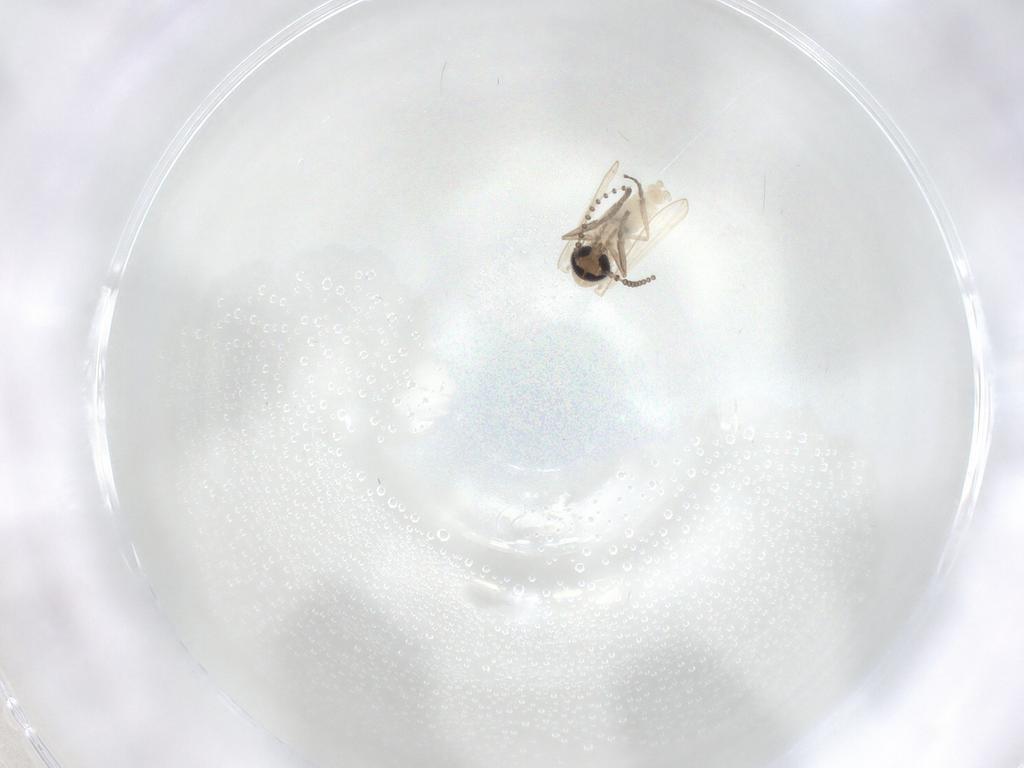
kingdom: Animalia
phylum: Arthropoda
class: Insecta
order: Diptera
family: Psychodidae
